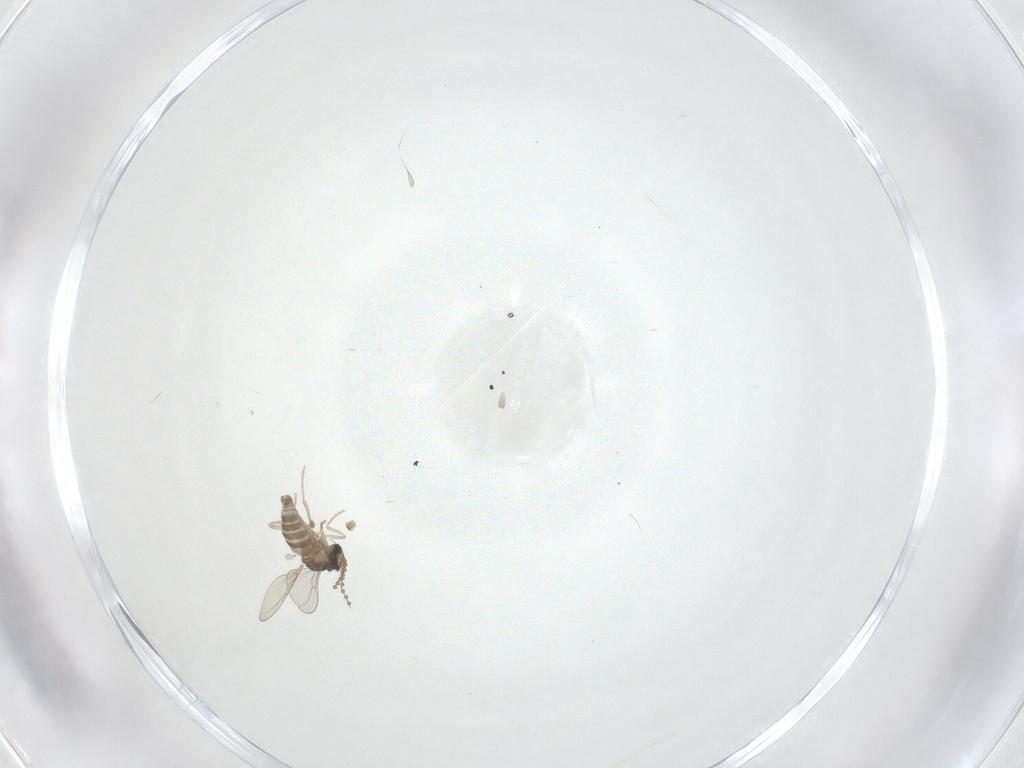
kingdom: Animalia
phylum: Arthropoda
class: Insecta
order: Diptera
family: Cecidomyiidae
